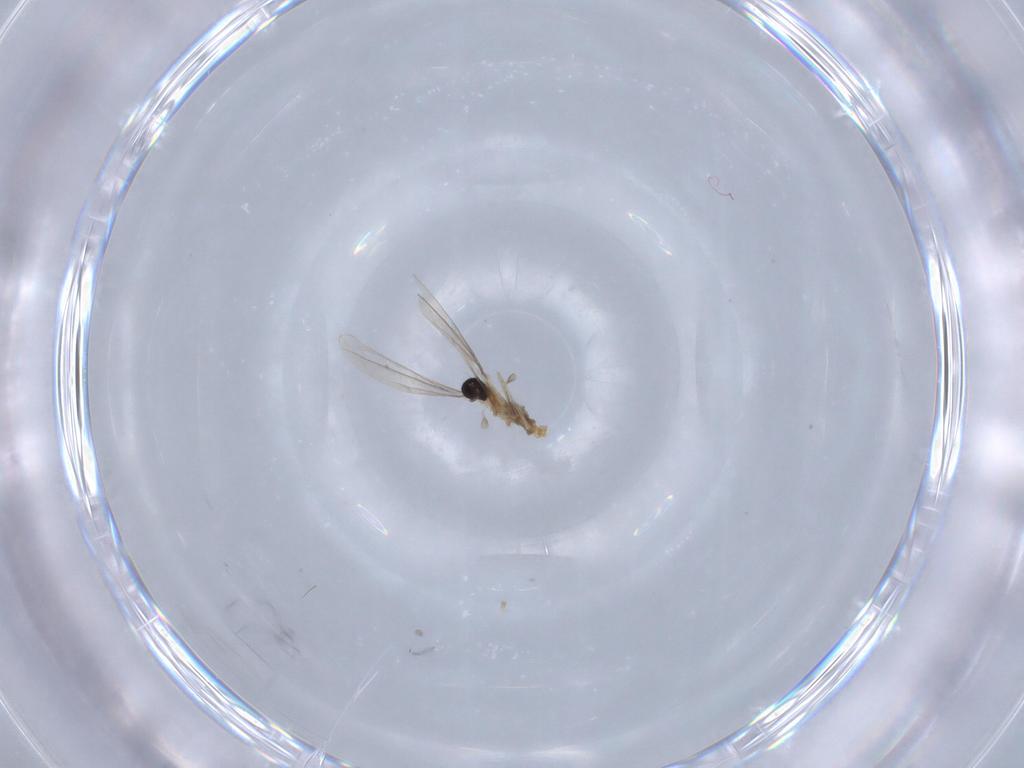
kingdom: Animalia
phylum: Arthropoda
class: Insecta
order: Diptera
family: Cecidomyiidae
